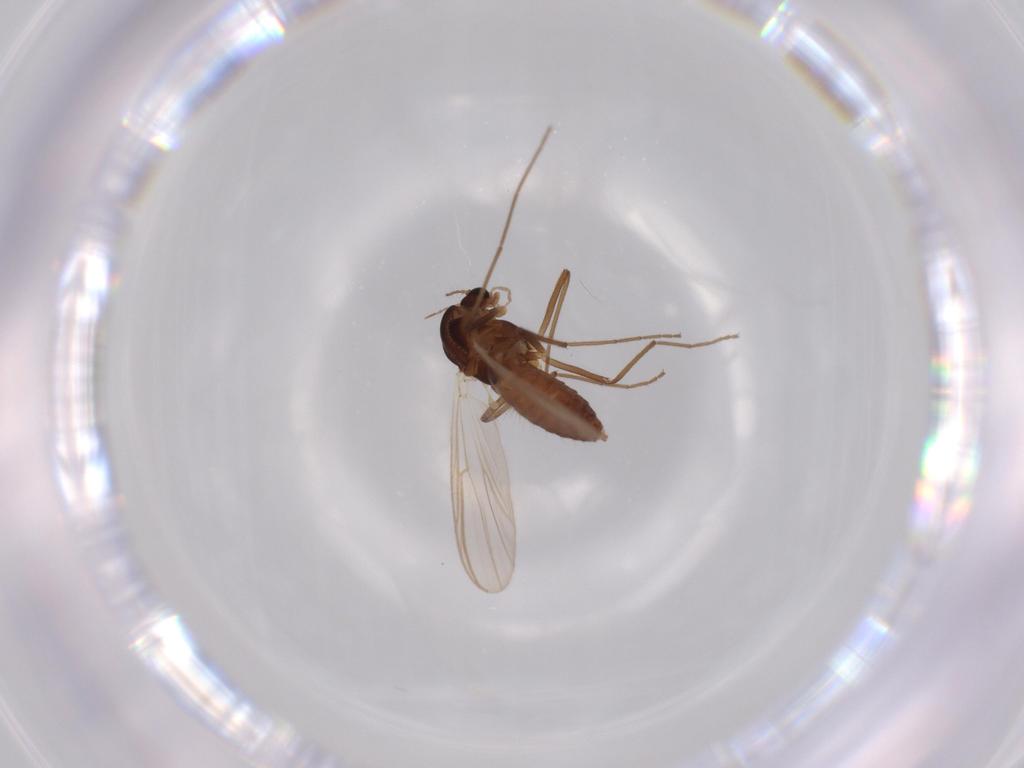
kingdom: Animalia
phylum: Arthropoda
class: Insecta
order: Diptera
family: Chironomidae
